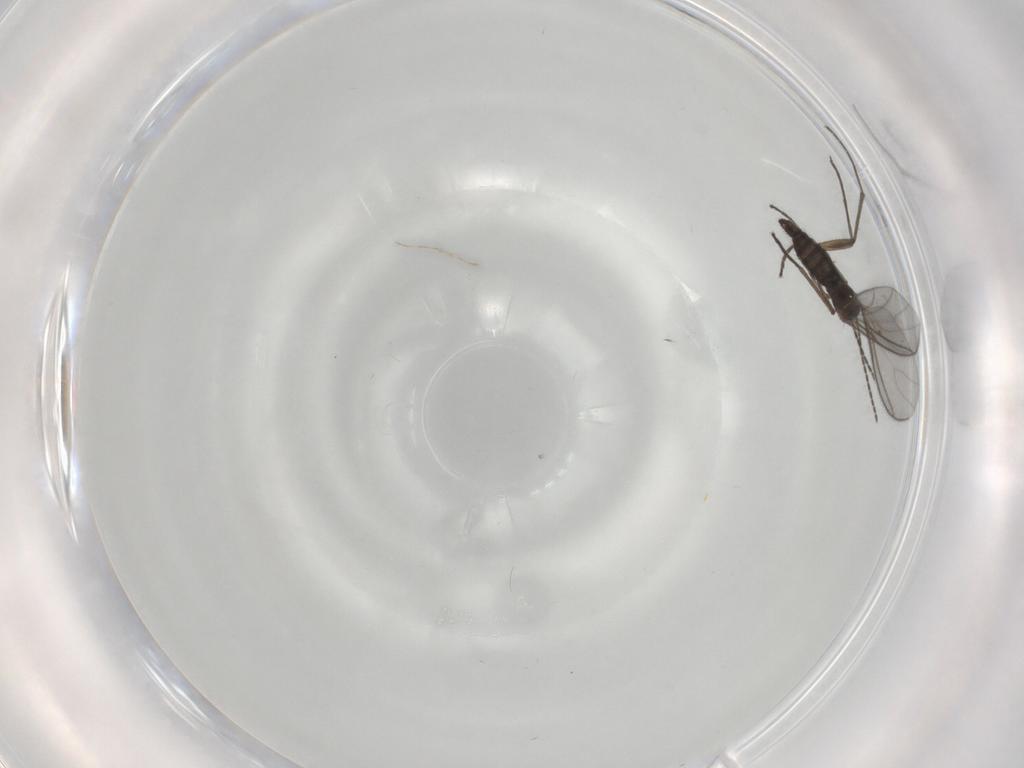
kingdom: Animalia
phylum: Arthropoda
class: Insecta
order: Diptera
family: Sciaridae
